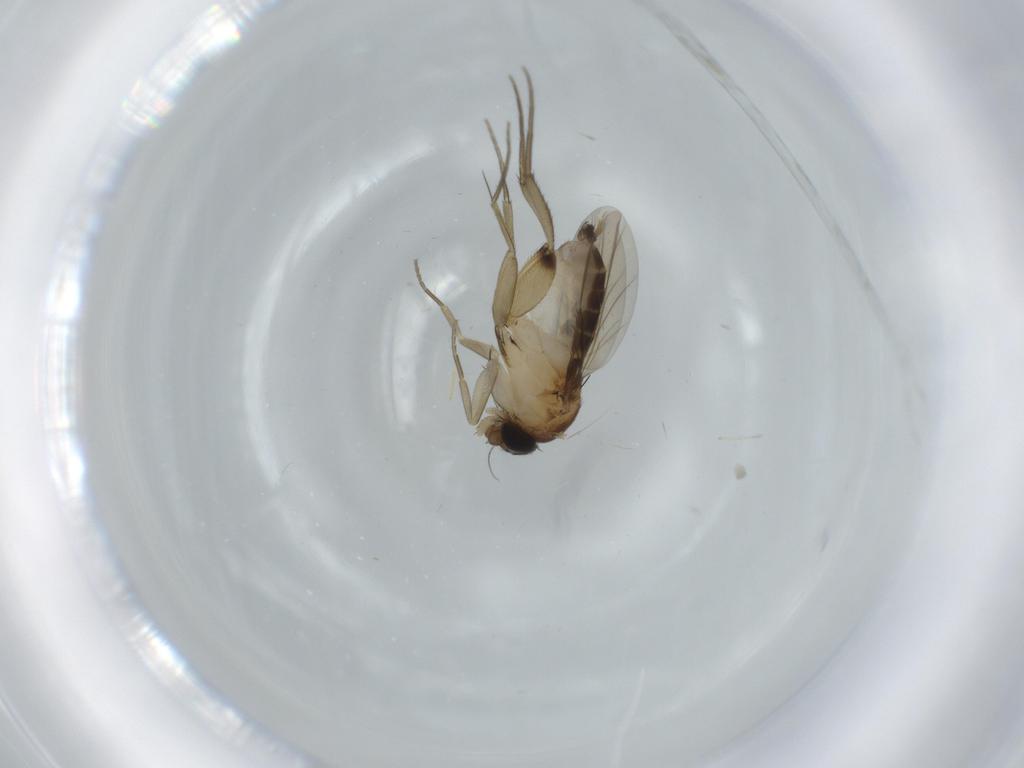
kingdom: Animalia
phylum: Arthropoda
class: Insecta
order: Diptera
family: Phoridae
